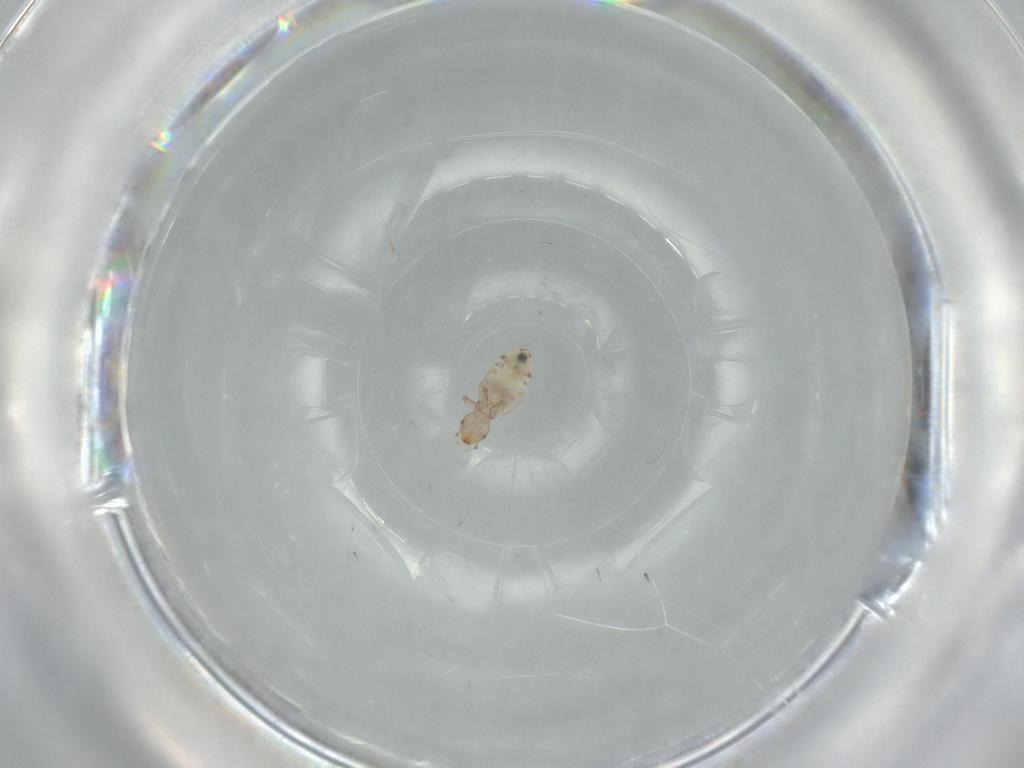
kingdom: Animalia
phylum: Arthropoda
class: Insecta
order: Psocodea
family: Liposcelididae
